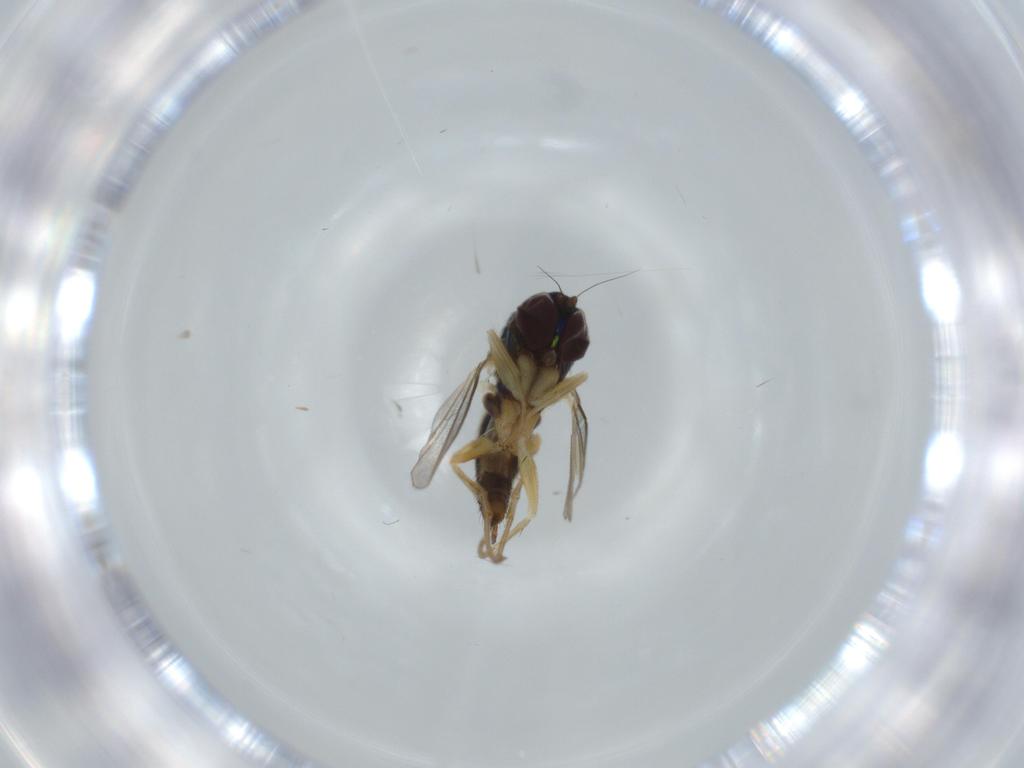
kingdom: Animalia
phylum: Arthropoda
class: Insecta
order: Diptera
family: Dolichopodidae
